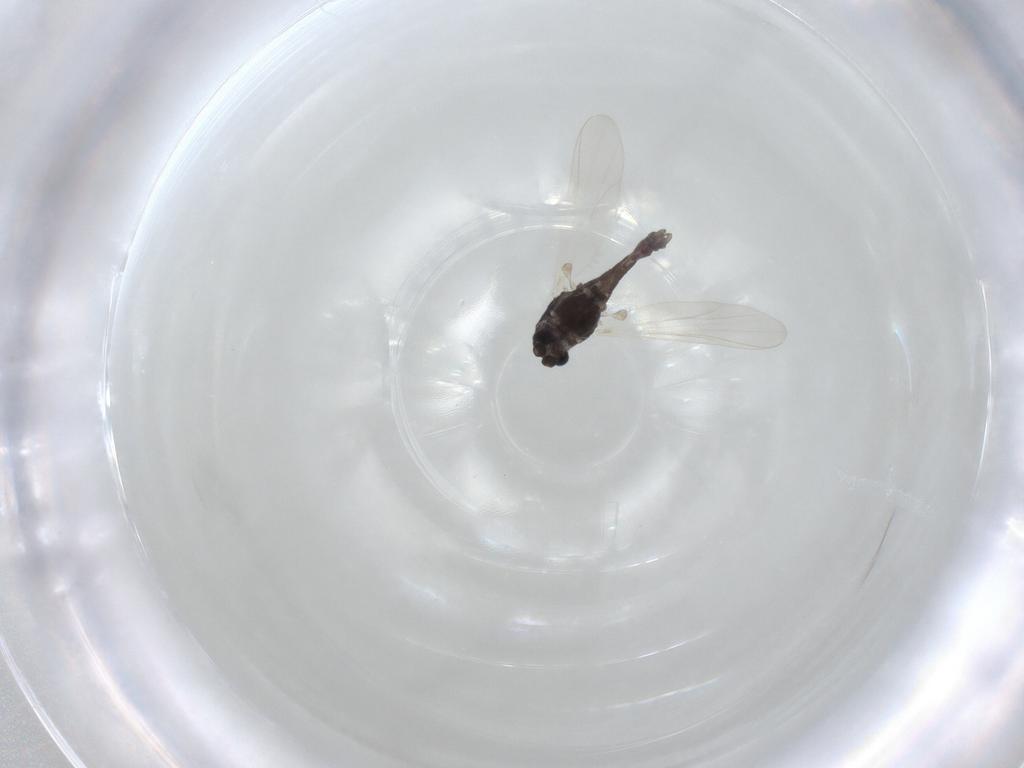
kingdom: Animalia
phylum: Arthropoda
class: Insecta
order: Diptera
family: Chironomidae
